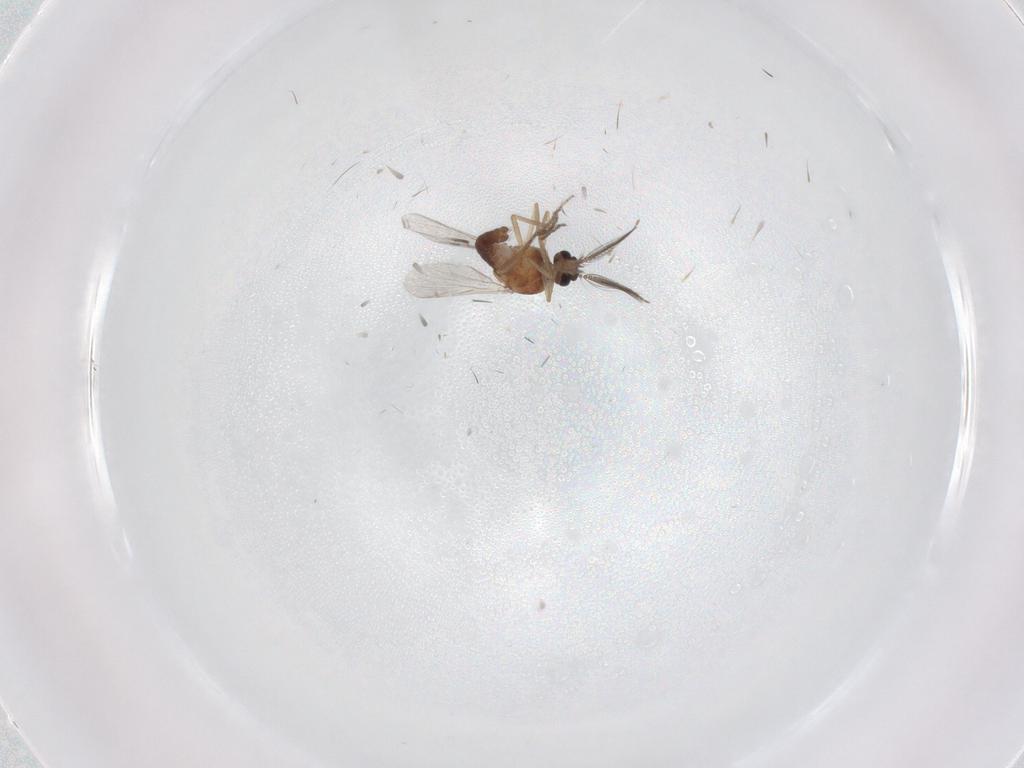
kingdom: Animalia
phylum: Arthropoda
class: Insecta
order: Diptera
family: Ceratopogonidae
